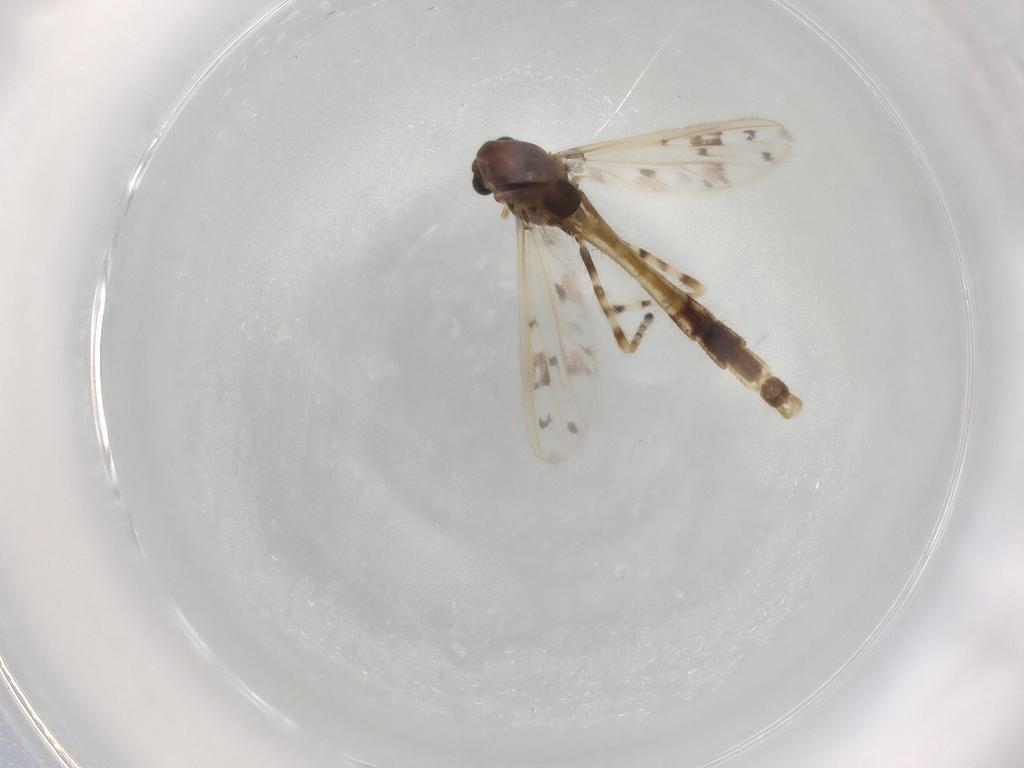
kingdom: Animalia
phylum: Arthropoda
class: Insecta
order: Diptera
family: Chironomidae
